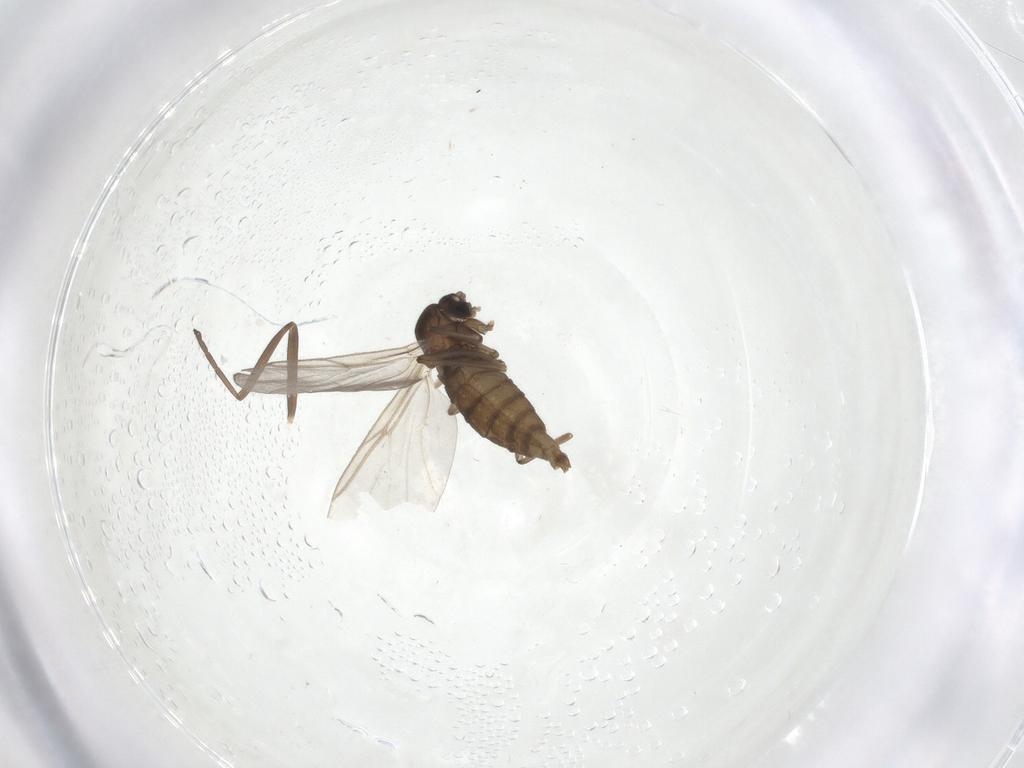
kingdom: Animalia
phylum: Arthropoda
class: Insecta
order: Diptera
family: Cecidomyiidae
